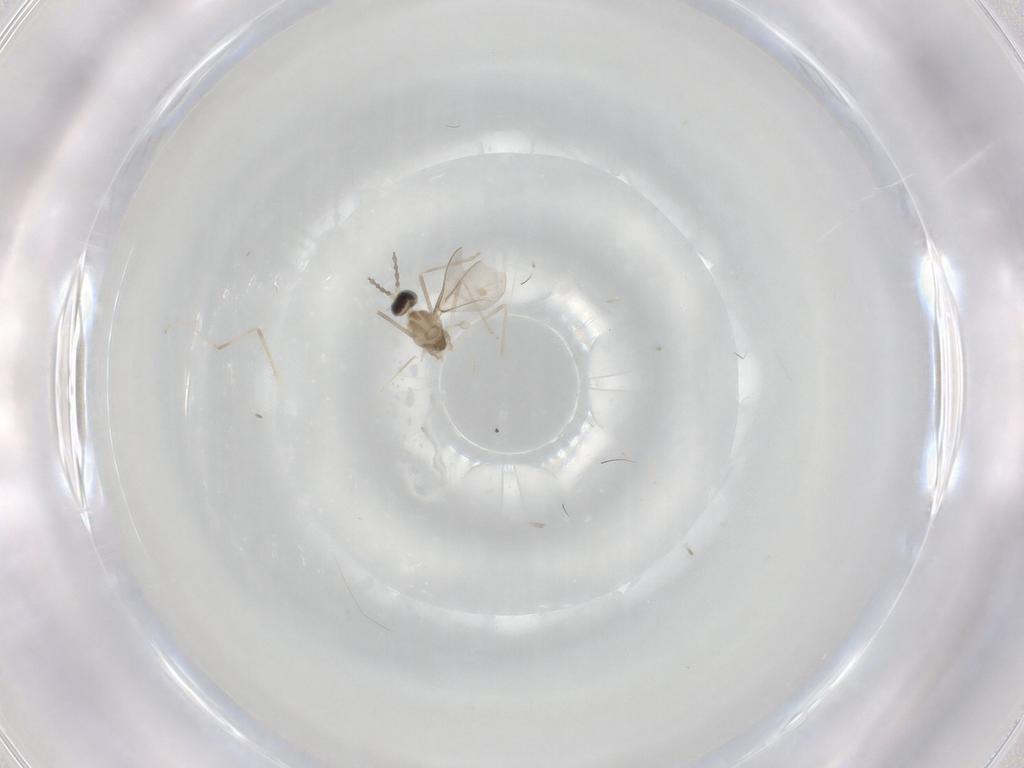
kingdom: Animalia
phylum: Arthropoda
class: Insecta
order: Diptera
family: Cecidomyiidae
